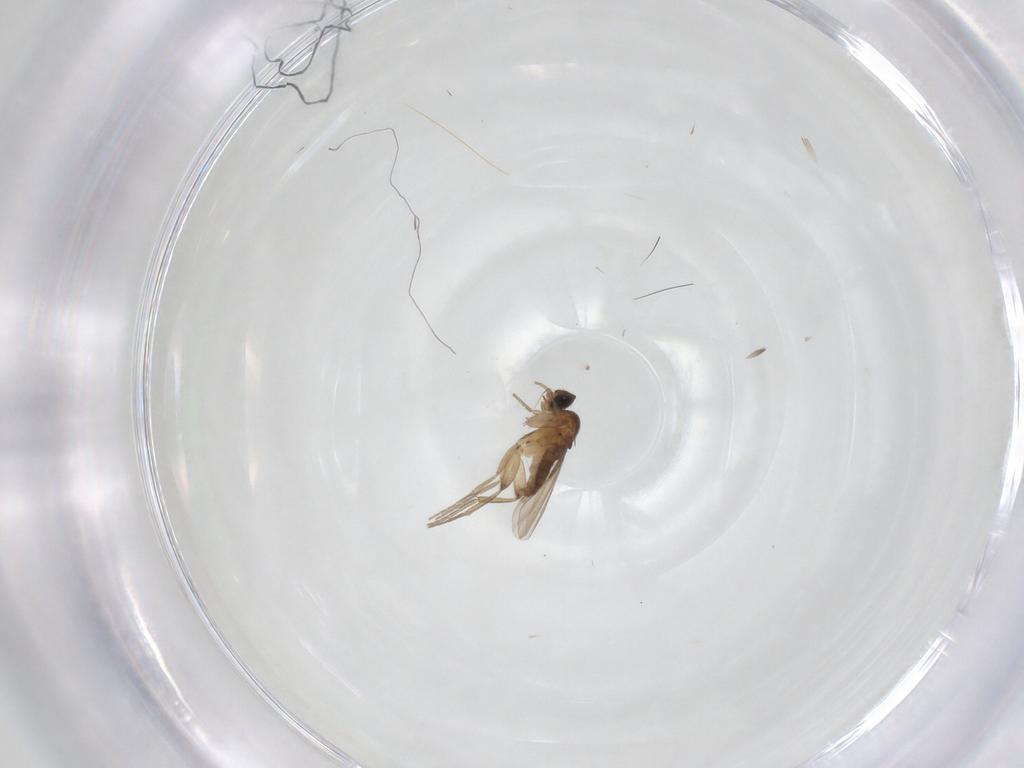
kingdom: Animalia
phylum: Arthropoda
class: Insecta
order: Diptera
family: Phoridae
